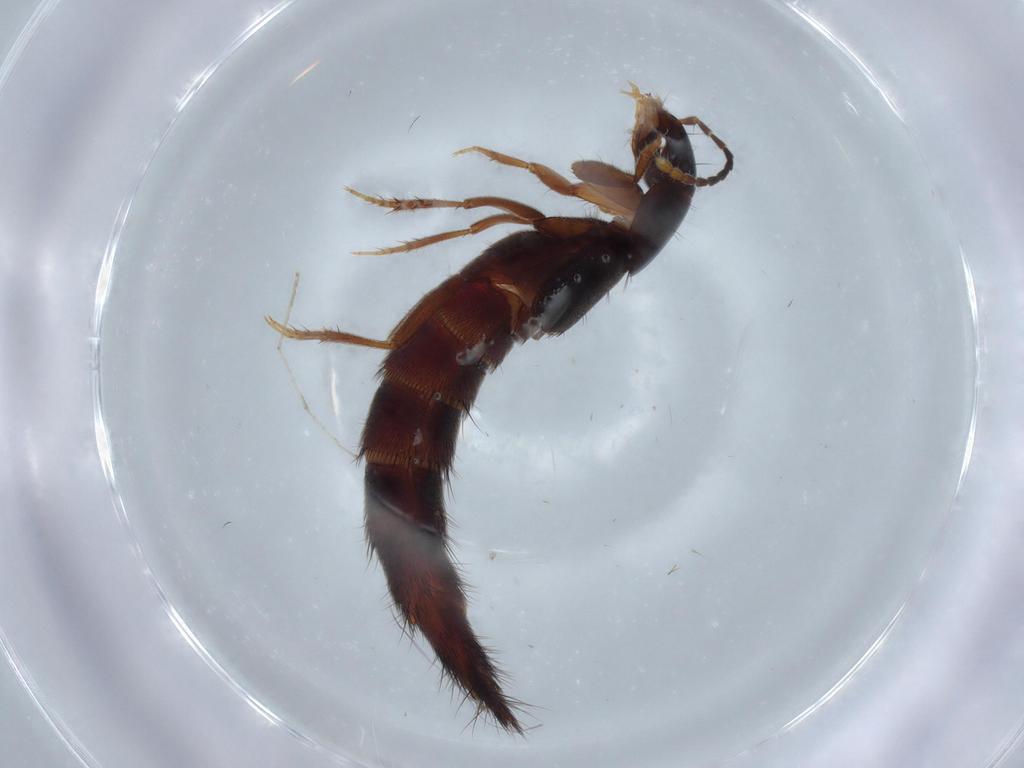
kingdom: Animalia
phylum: Arthropoda
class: Insecta
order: Coleoptera
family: Staphylinidae
